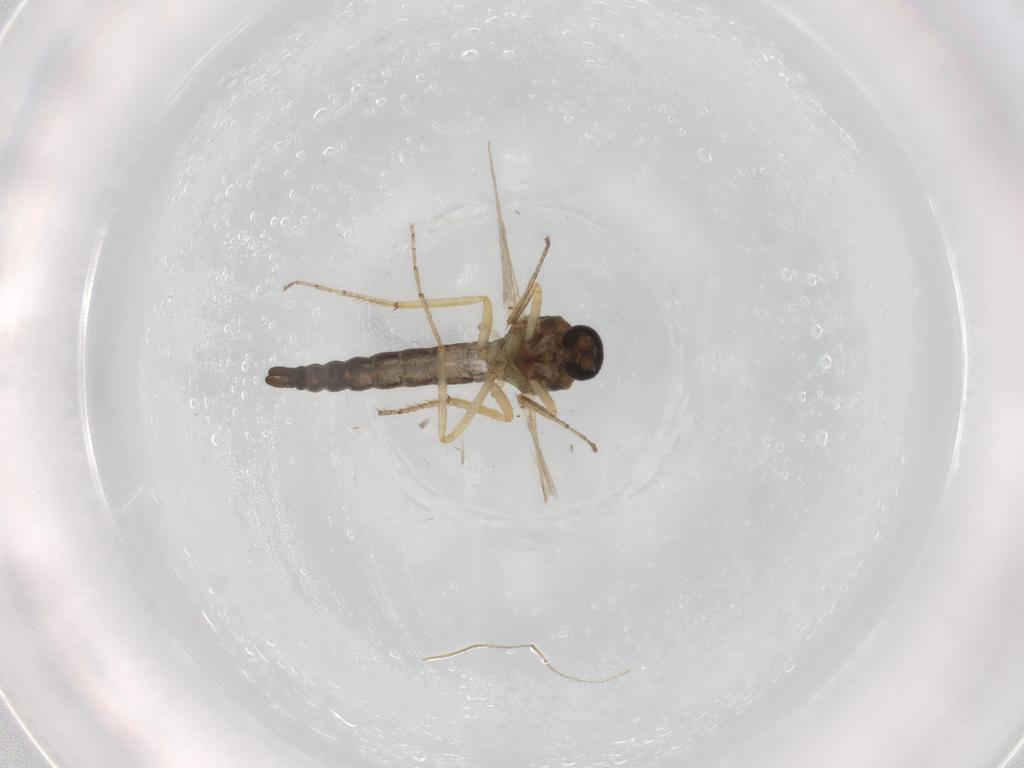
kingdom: Animalia
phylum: Arthropoda
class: Insecta
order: Diptera
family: Ceratopogonidae
